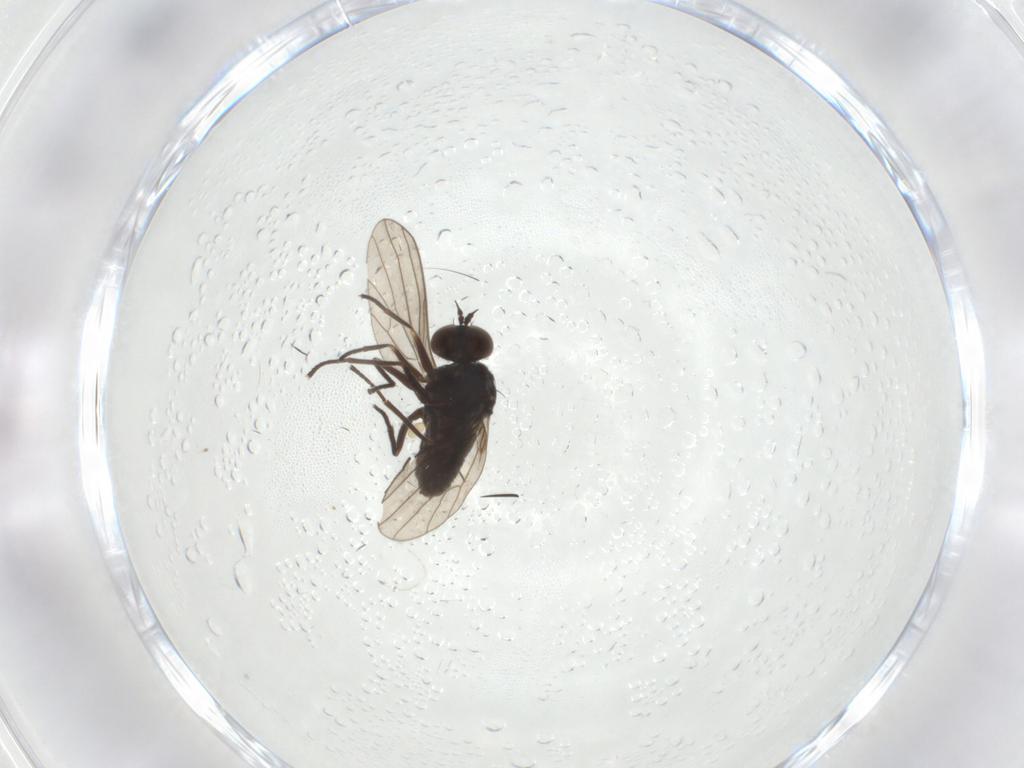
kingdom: Animalia
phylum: Arthropoda
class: Insecta
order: Diptera
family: Dolichopodidae
